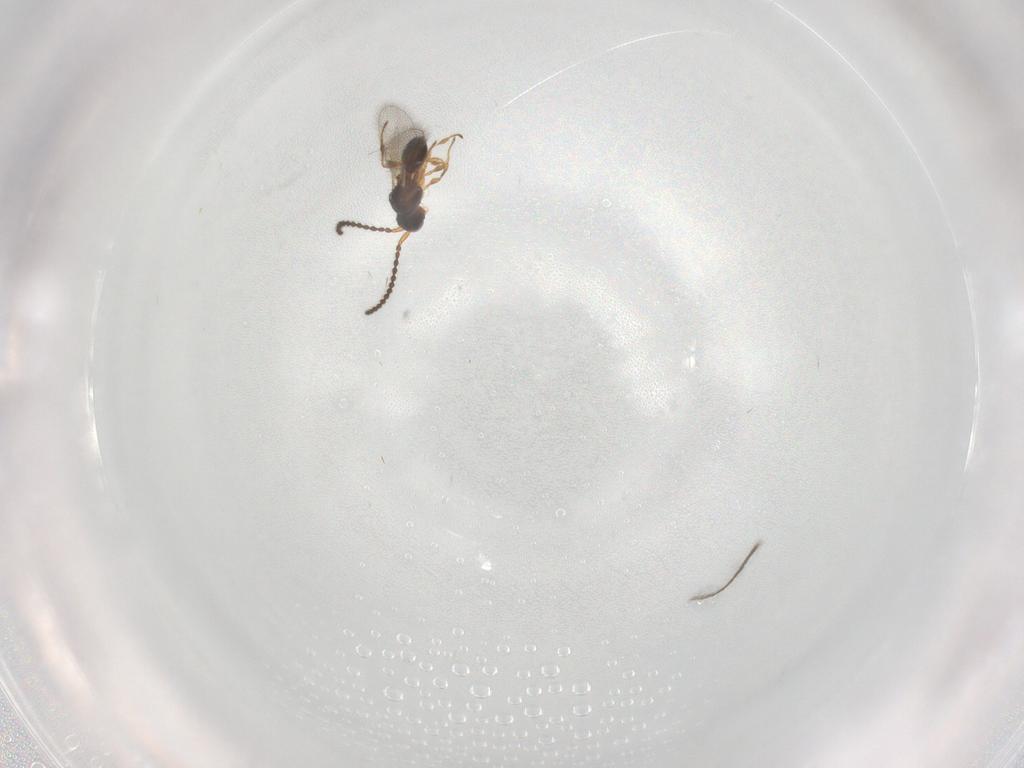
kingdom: Animalia
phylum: Arthropoda
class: Insecta
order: Hymenoptera
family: Diapriidae
